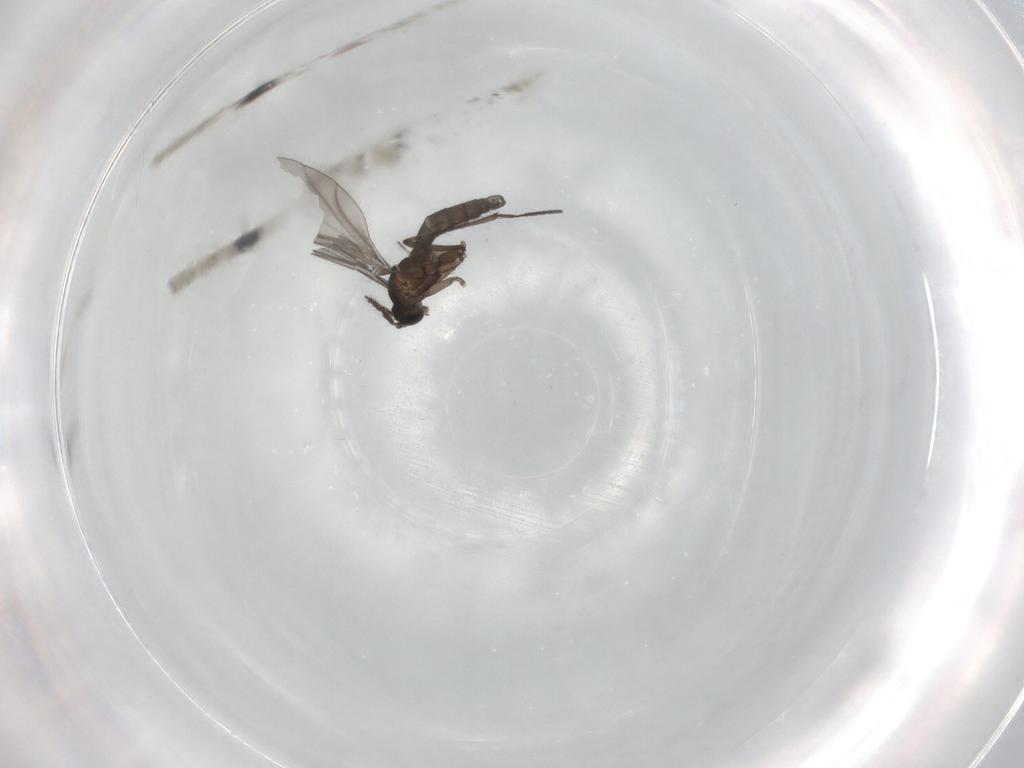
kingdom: Animalia
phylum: Arthropoda
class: Insecta
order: Diptera
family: Sciaridae
